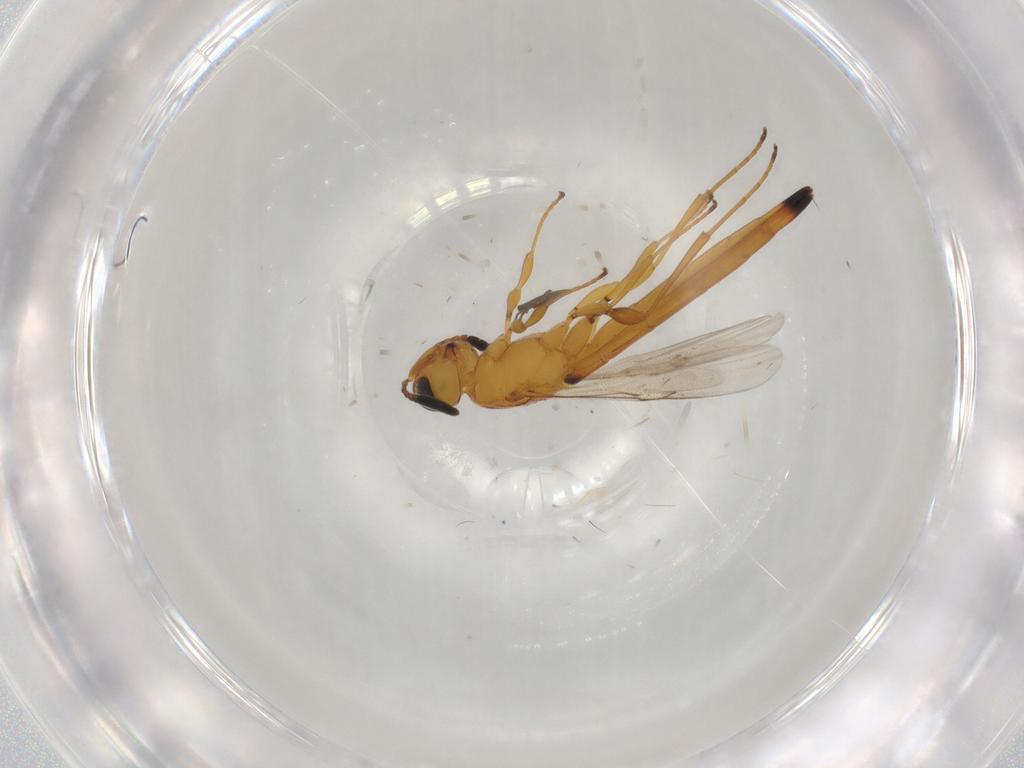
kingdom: Animalia
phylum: Arthropoda
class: Insecta
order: Hymenoptera
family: Scelionidae
